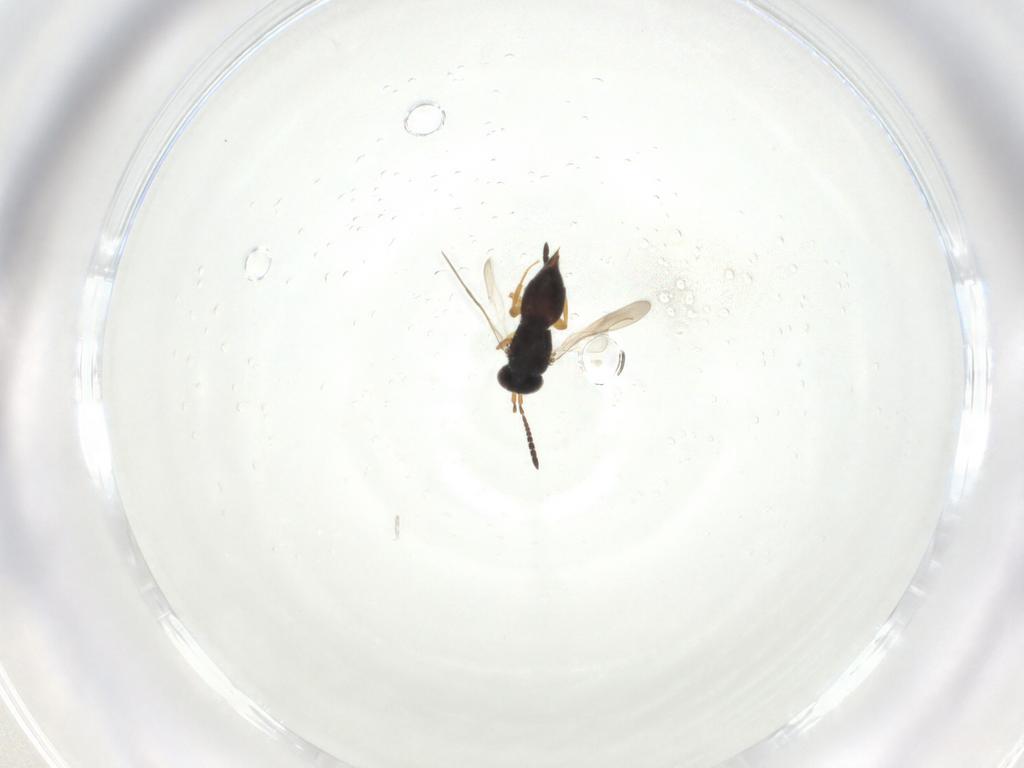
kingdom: Animalia
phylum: Arthropoda
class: Insecta
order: Hymenoptera
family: Ceraphronidae
